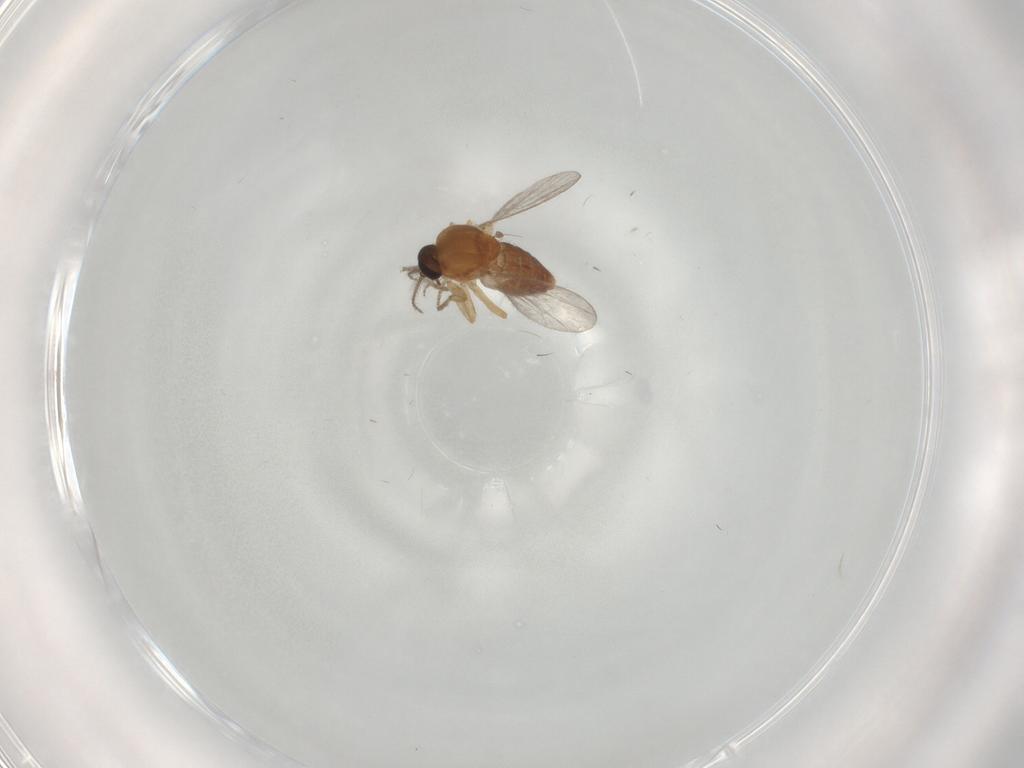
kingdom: Animalia
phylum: Arthropoda
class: Insecta
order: Diptera
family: Ceratopogonidae
